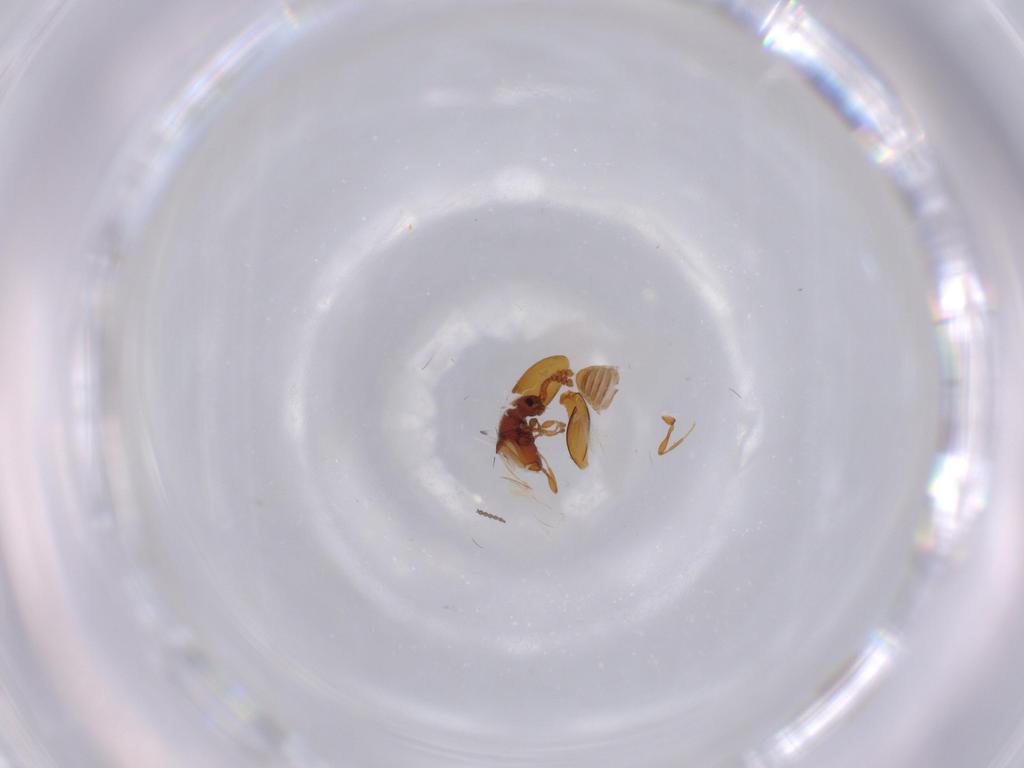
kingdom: Animalia
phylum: Arthropoda
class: Insecta
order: Coleoptera
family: Staphylinidae
